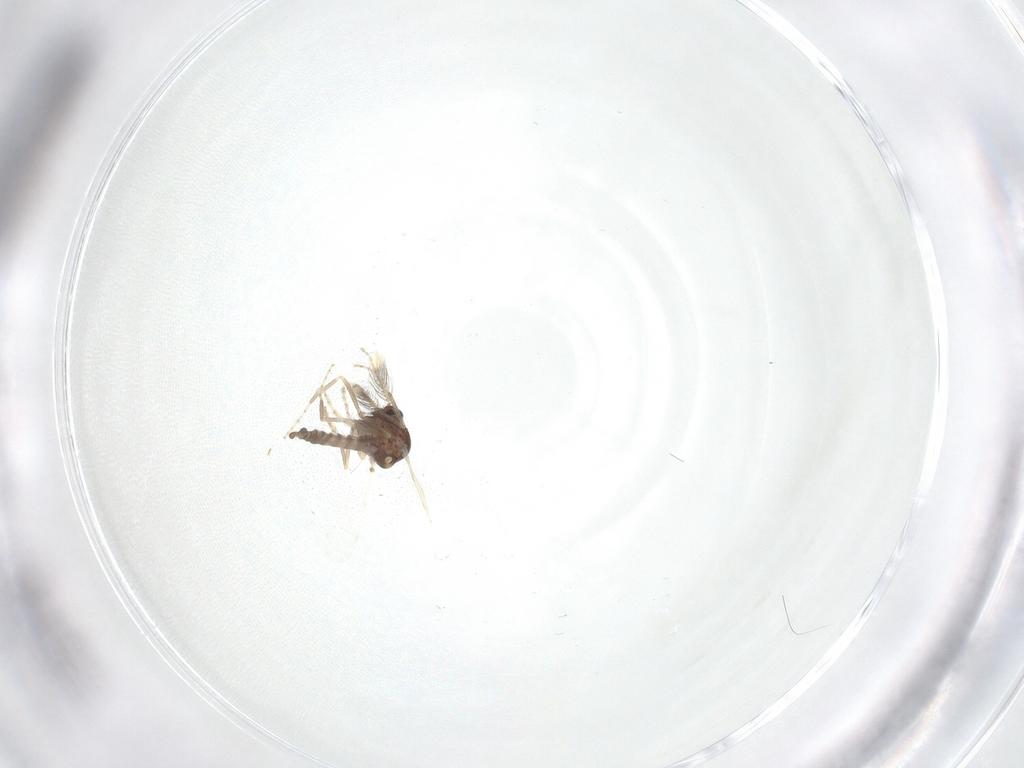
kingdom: Animalia
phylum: Arthropoda
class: Insecta
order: Diptera
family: Ceratopogonidae
